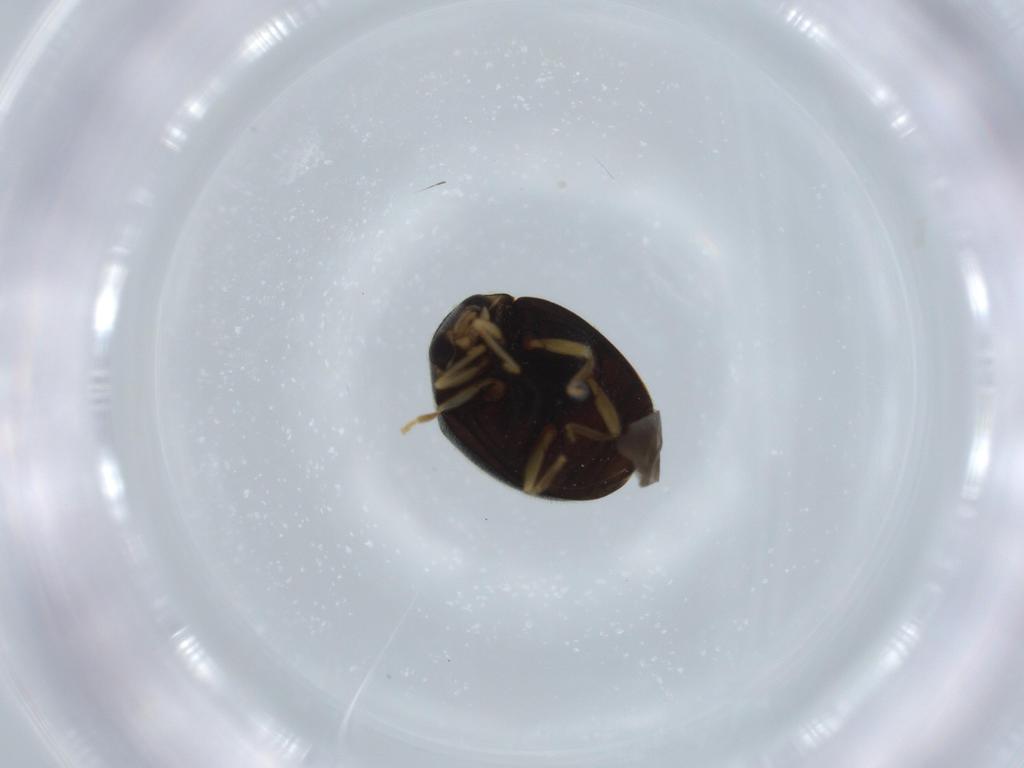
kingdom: Animalia
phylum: Arthropoda
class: Insecta
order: Coleoptera
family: Coccinellidae
